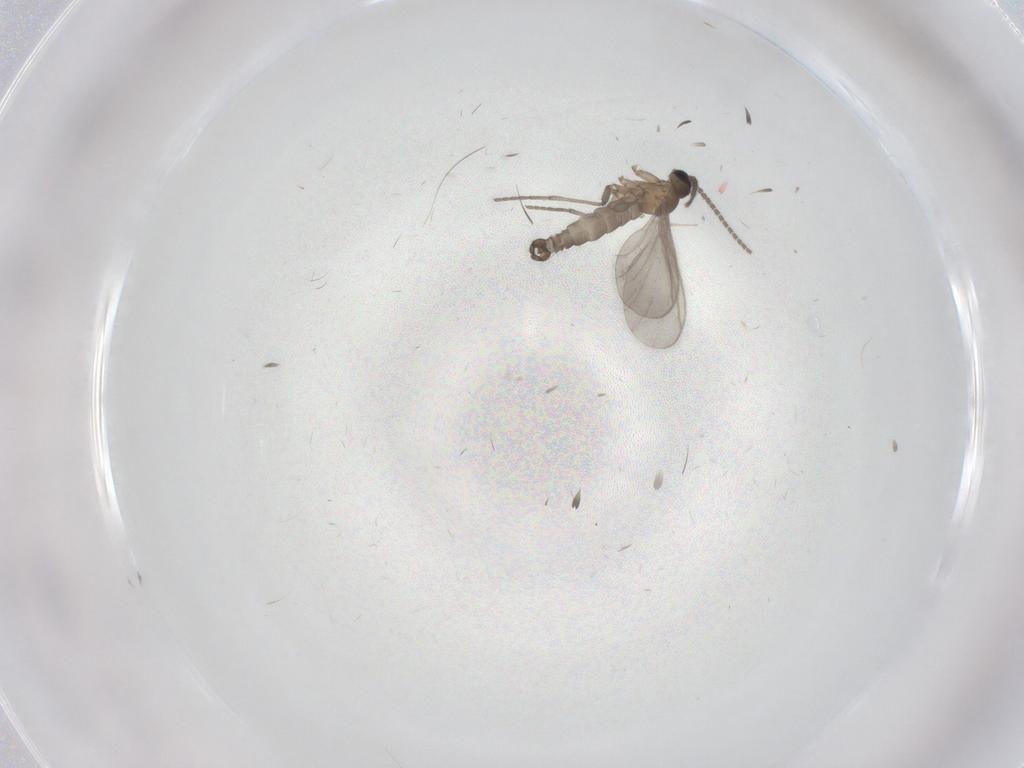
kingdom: Animalia
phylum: Arthropoda
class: Insecta
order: Diptera
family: Sciaridae
